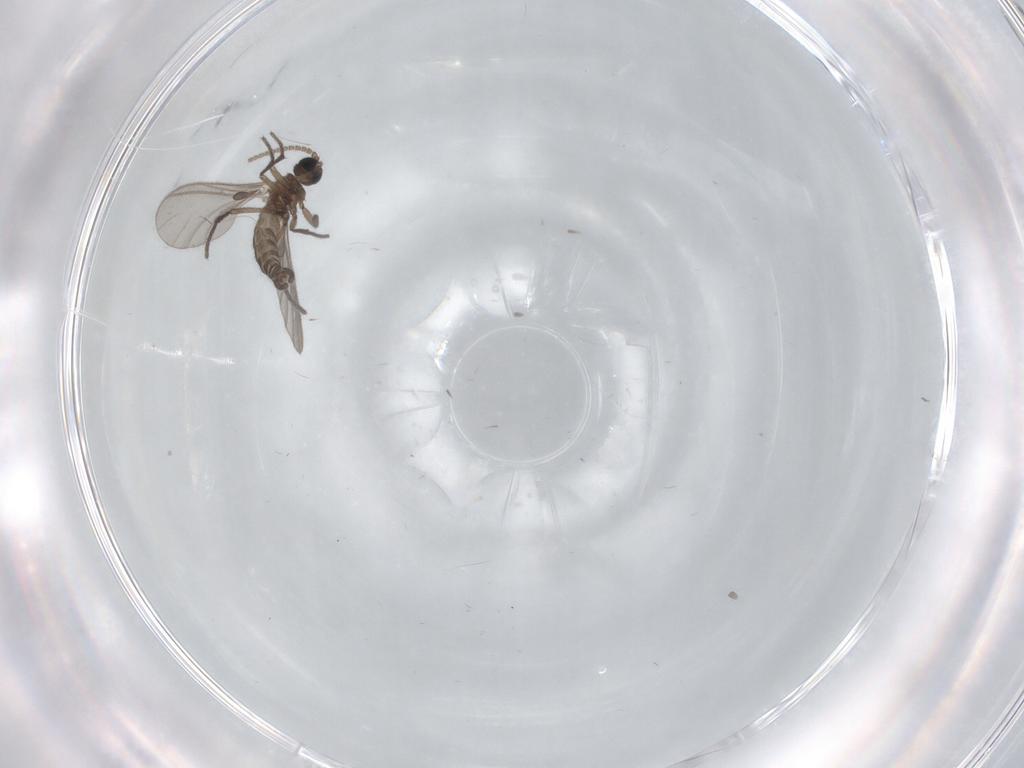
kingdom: Animalia
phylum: Arthropoda
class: Insecta
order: Diptera
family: Sciaridae
